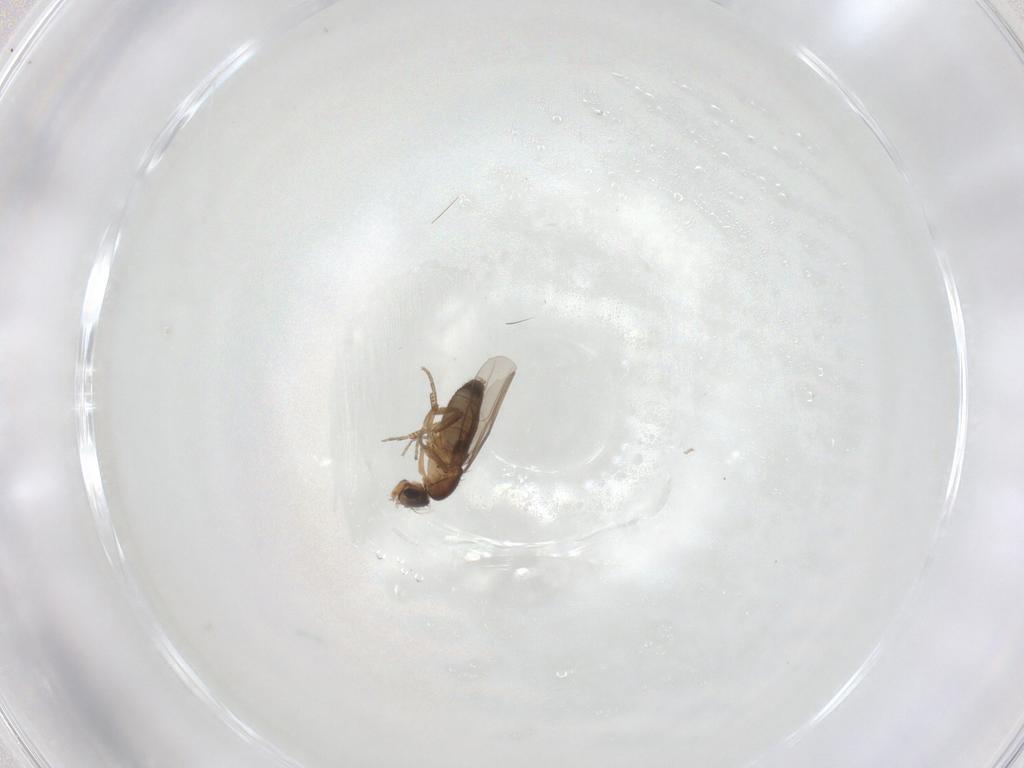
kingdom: Animalia
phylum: Arthropoda
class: Insecta
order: Diptera
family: Phoridae
